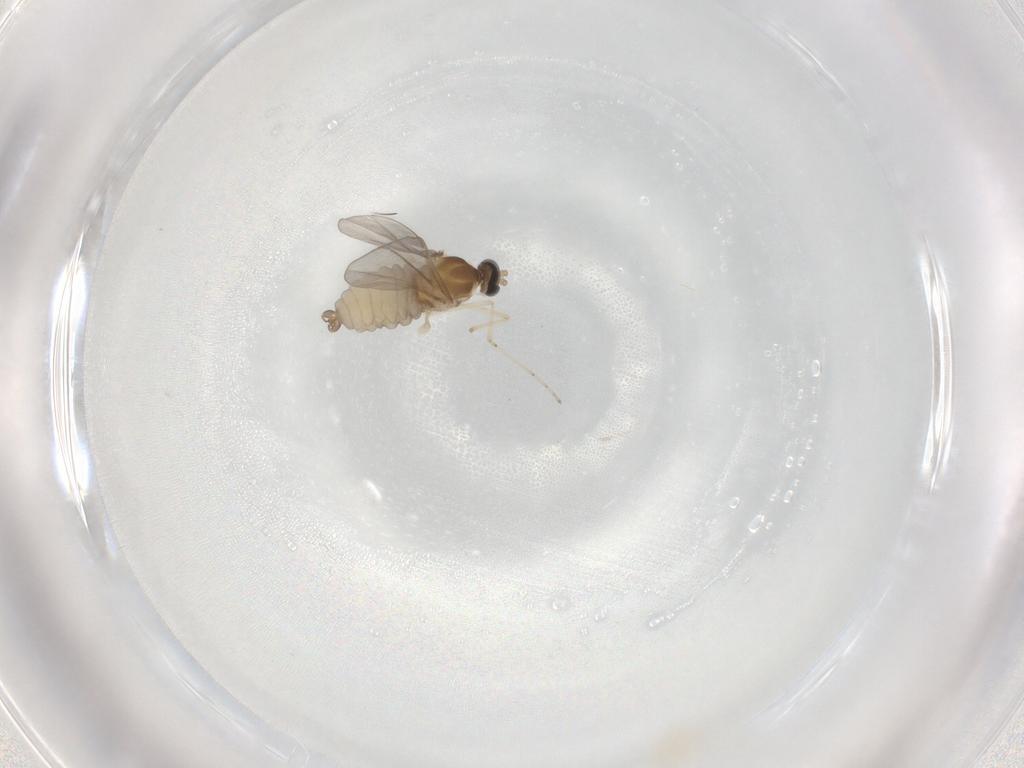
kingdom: Animalia
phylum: Arthropoda
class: Insecta
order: Diptera
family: Cecidomyiidae
